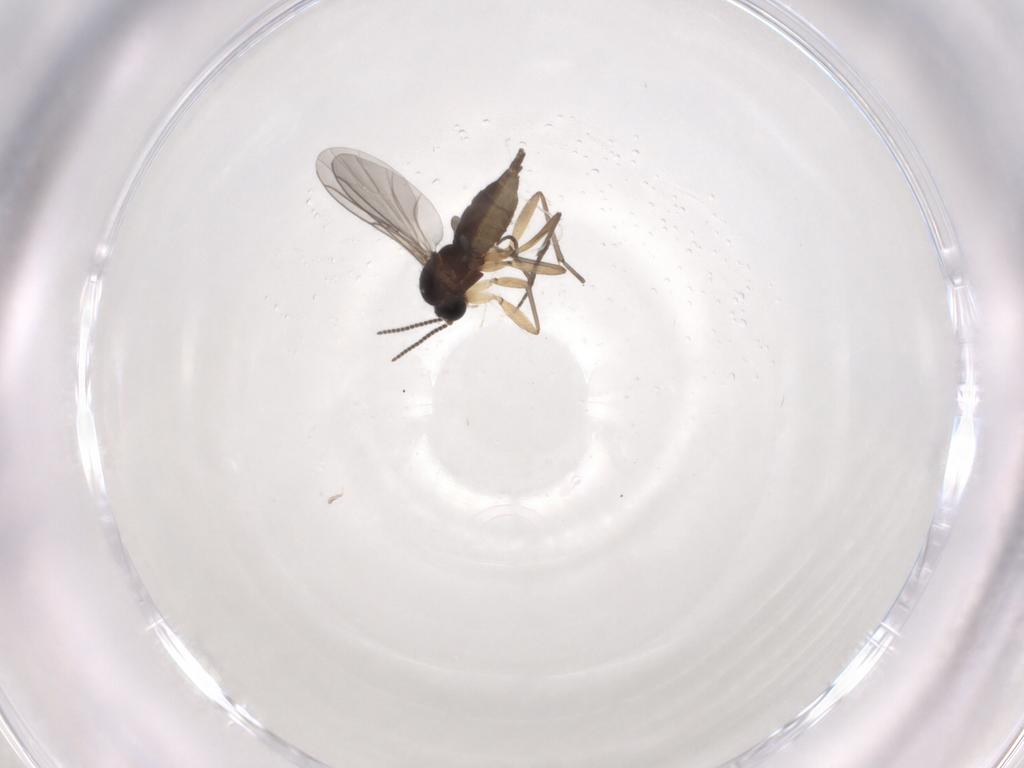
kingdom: Animalia
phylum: Arthropoda
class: Insecta
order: Diptera
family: Sciaridae
